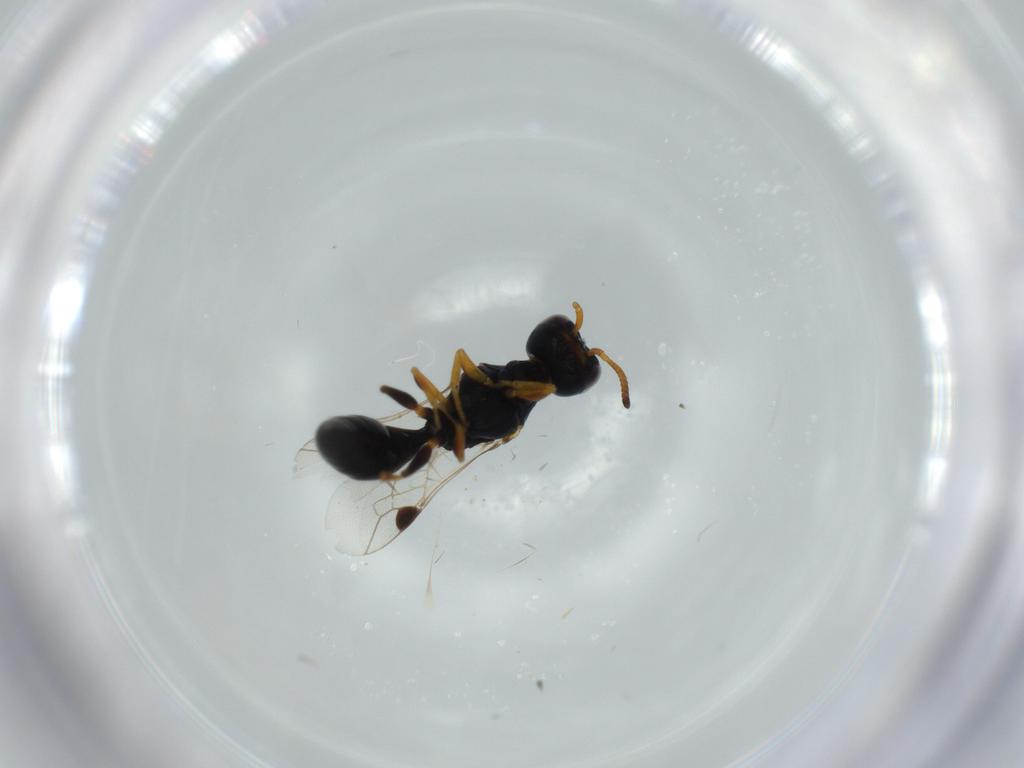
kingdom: Animalia
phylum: Arthropoda
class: Insecta
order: Hymenoptera
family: Pemphredonidae
